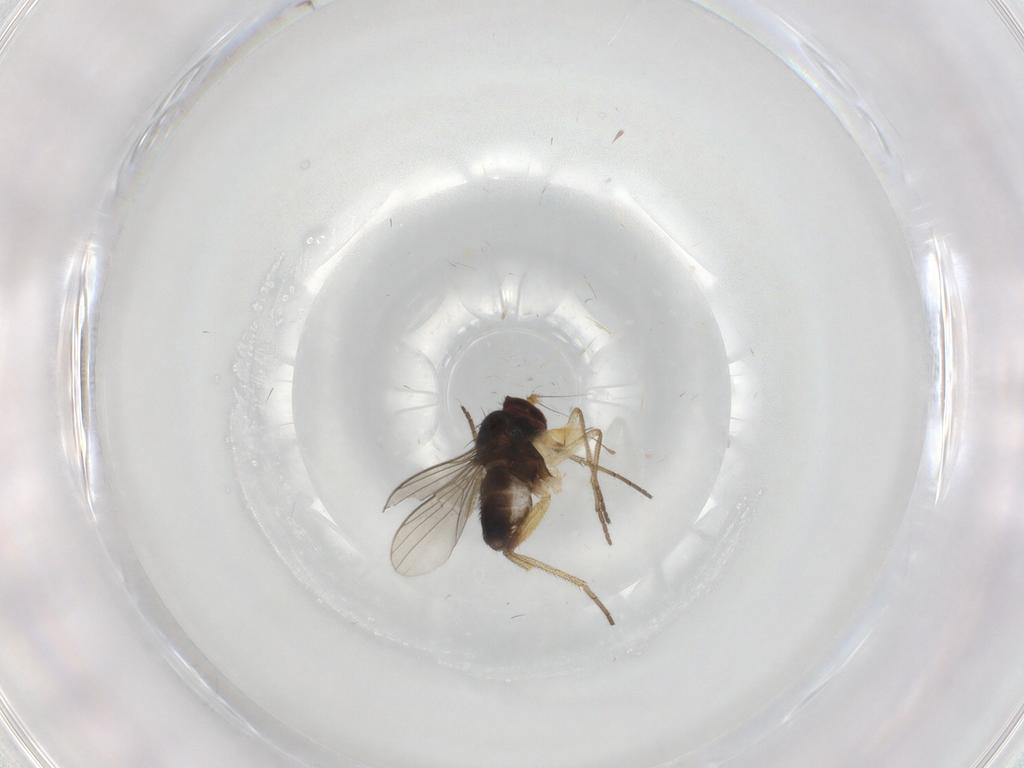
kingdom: Animalia
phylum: Arthropoda
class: Insecta
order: Diptera
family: Dolichopodidae
